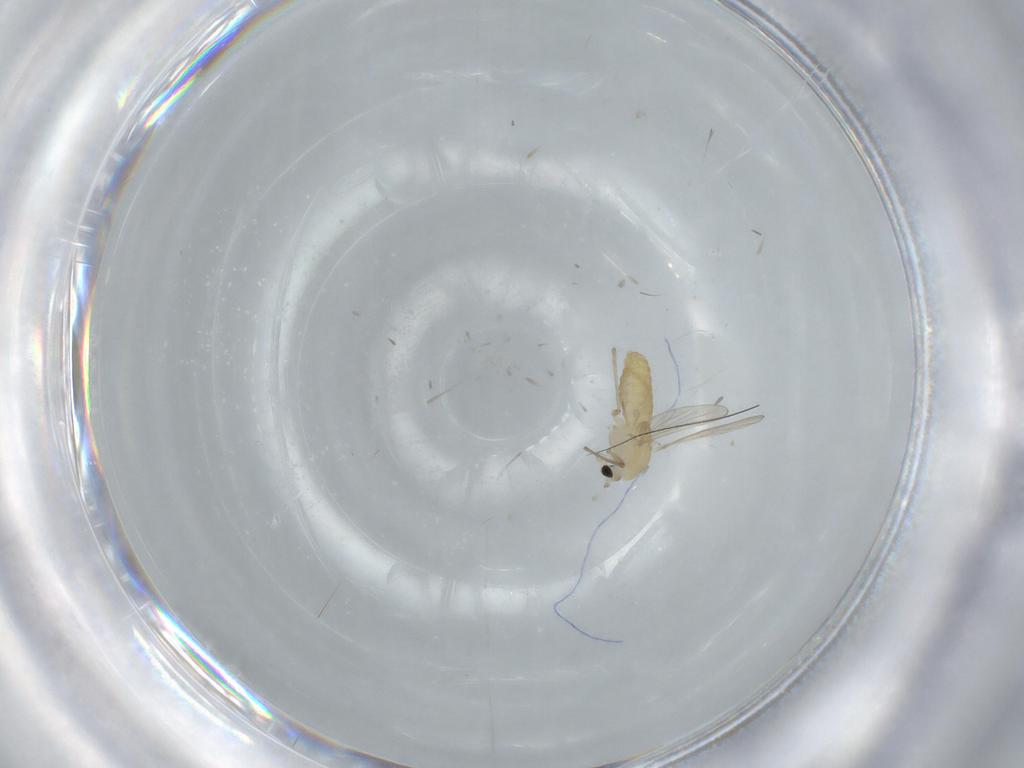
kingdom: Animalia
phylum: Arthropoda
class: Insecta
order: Diptera
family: Chironomidae
